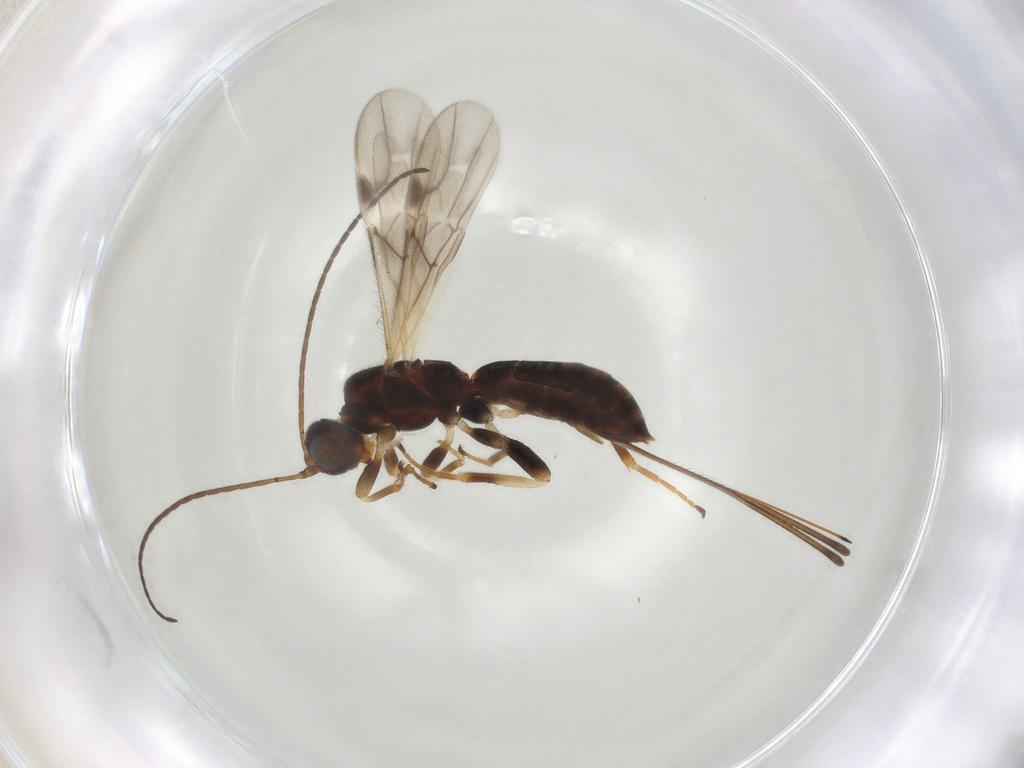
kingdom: Animalia
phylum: Arthropoda
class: Insecta
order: Hymenoptera
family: Braconidae
